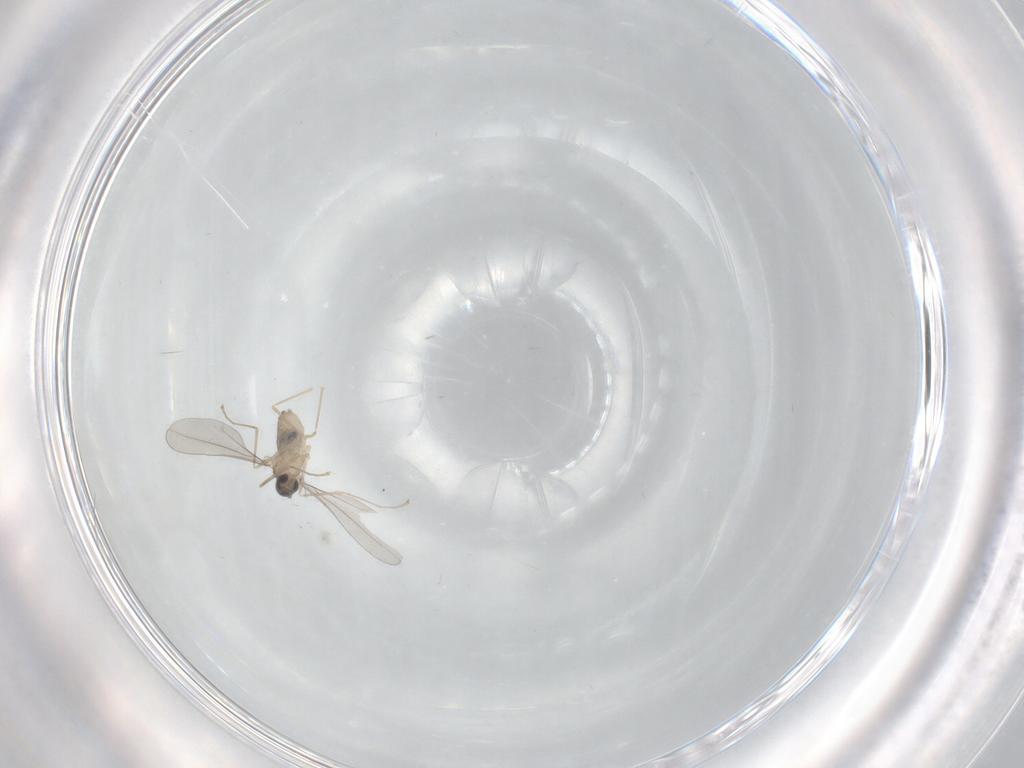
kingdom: Animalia
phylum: Arthropoda
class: Insecta
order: Diptera
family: Cecidomyiidae
